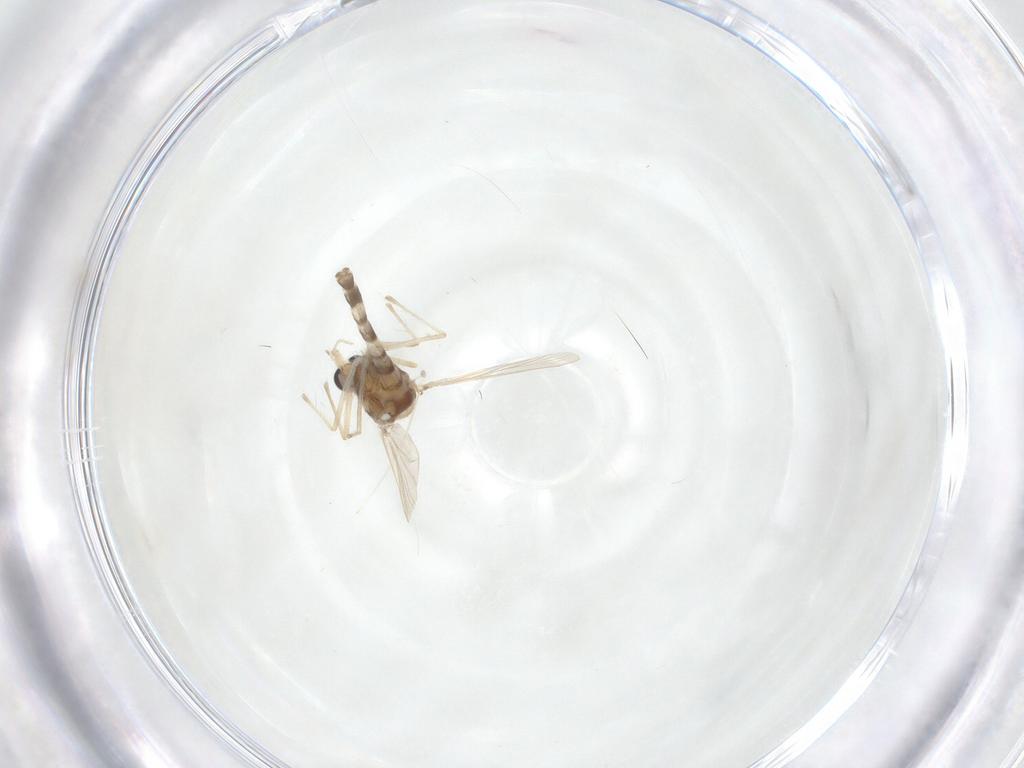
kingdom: Animalia
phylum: Arthropoda
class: Insecta
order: Diptera
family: Chironomidae
